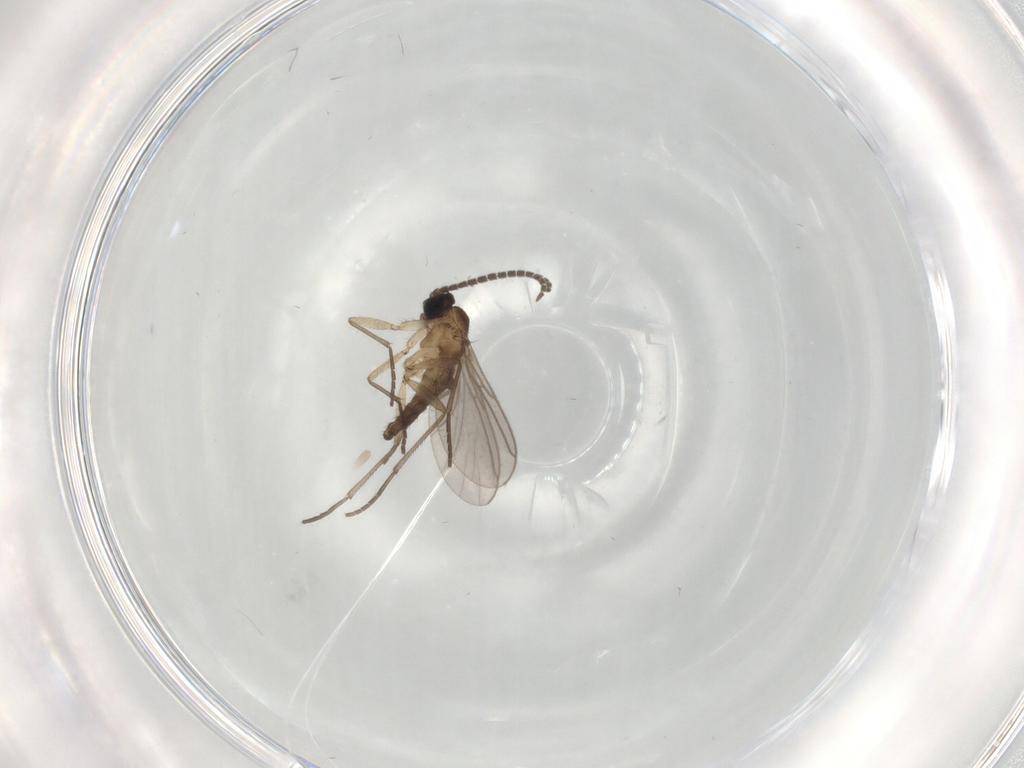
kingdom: Animalia
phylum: Arthropoda
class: Insecta
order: Diptera
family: Sciaridae
